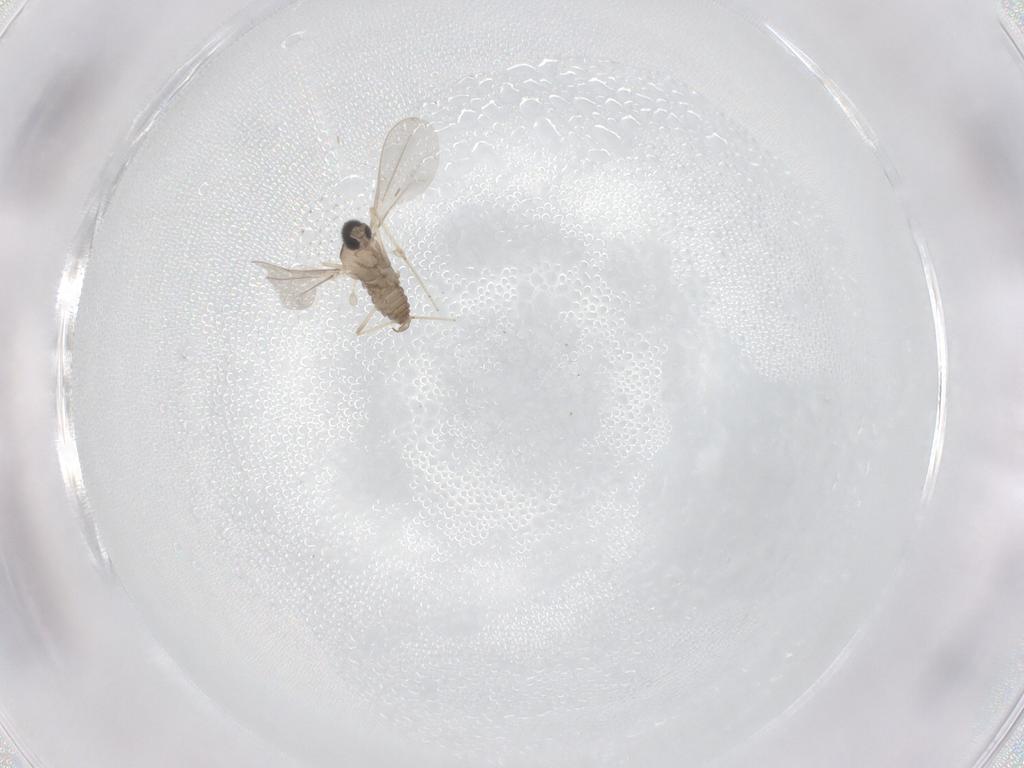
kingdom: Animalia
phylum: Arthropoda
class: Insecta
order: Diptera
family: Cecidomyiidae
